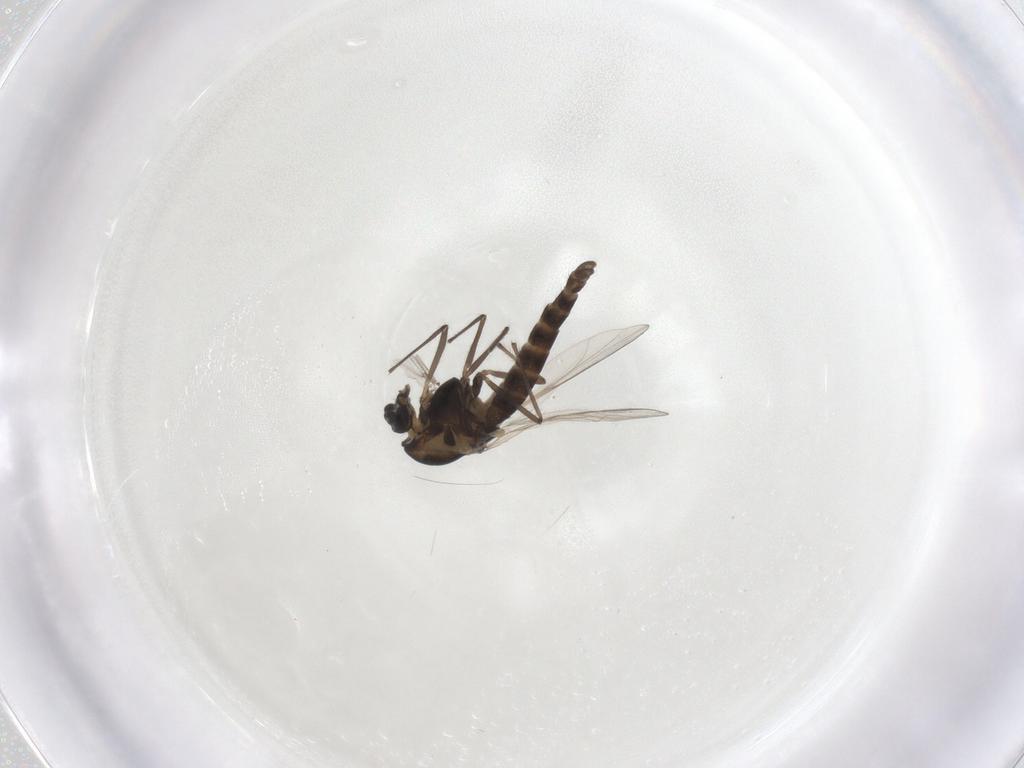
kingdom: Animalia
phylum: Arthropoda
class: Insecta
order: Diptera
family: Chironomidae
